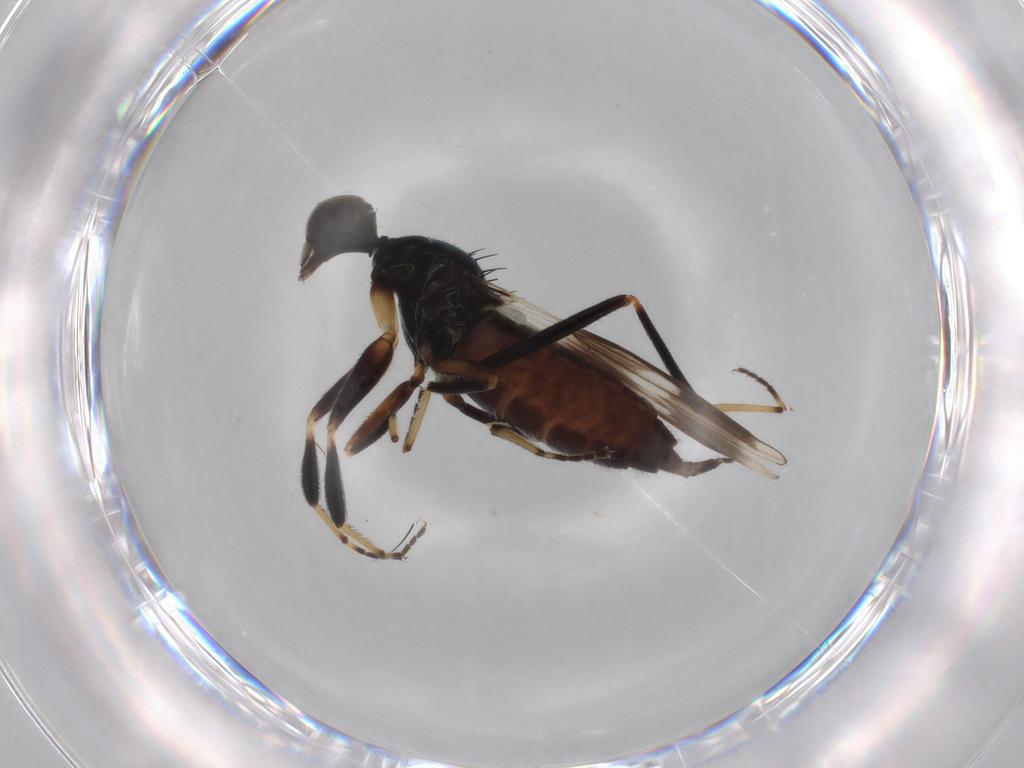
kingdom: Animalia
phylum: Arthropoda
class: Insecta
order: Diptera
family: Hybotidae
